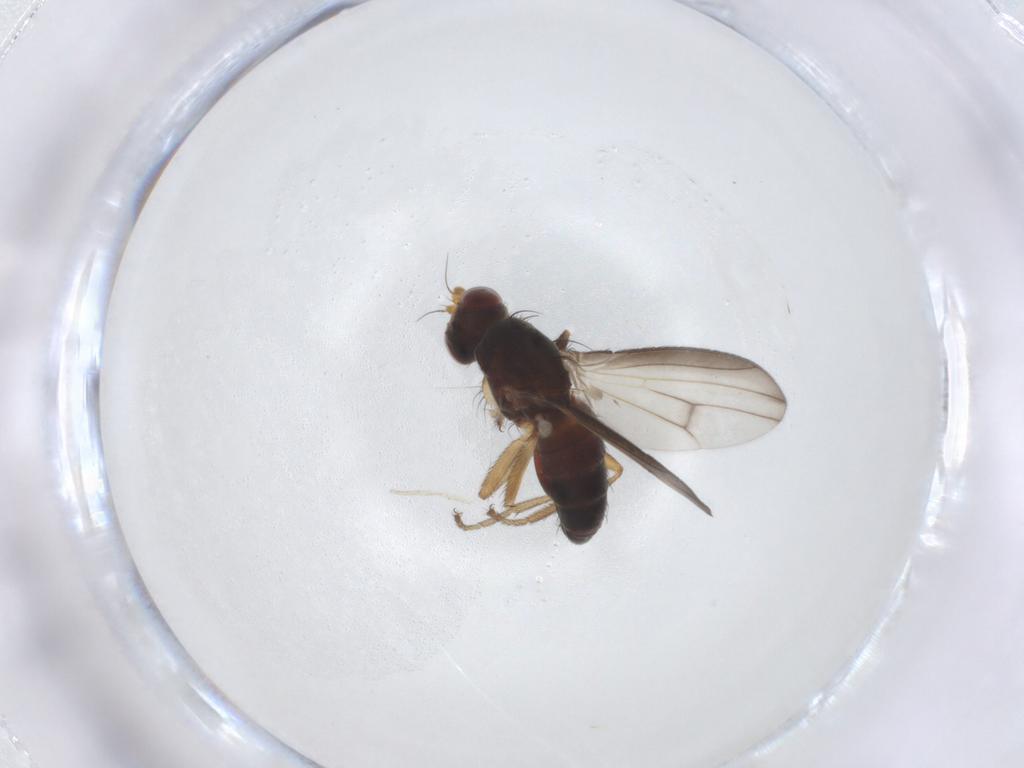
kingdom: Animalia
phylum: Arthropoda
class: Insecta
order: Diptera
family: Heleomyzidae
